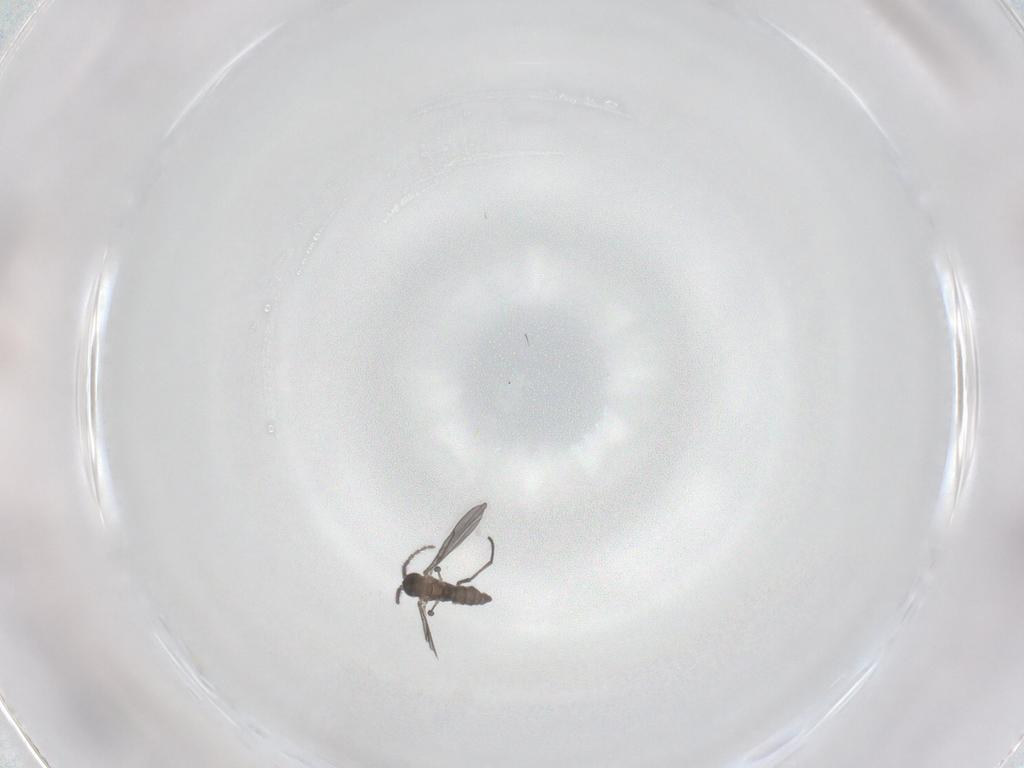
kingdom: Animalia
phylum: Arthropoda
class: Insecta
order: Diptera
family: Sciaridae
